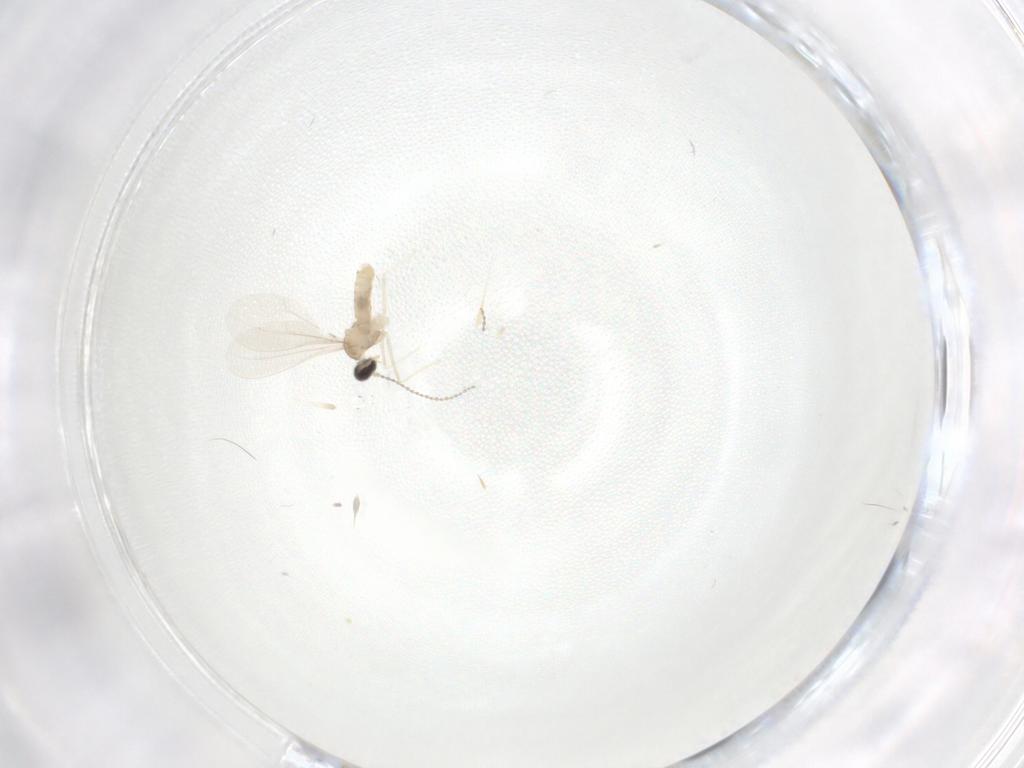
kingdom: Animalia
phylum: Arthropoda
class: Insecta
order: Diptera
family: Cecidomyiidae
